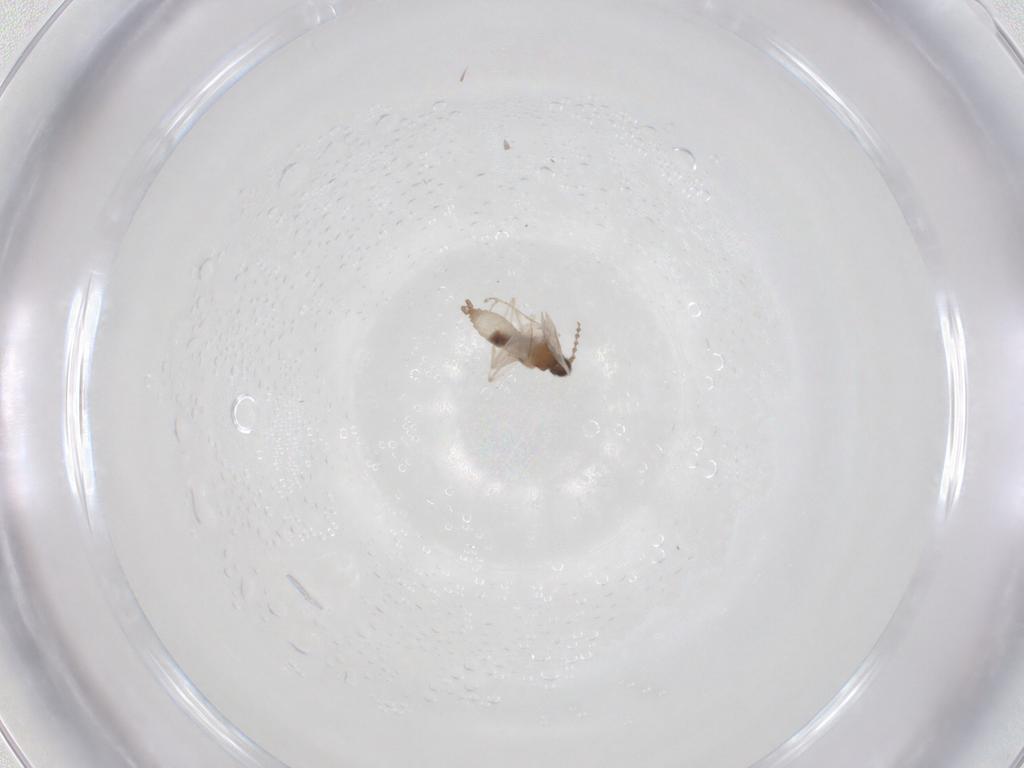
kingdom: Animalia
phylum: Arthropoda
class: Insecta
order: Diptera
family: Cecidomyiidae
